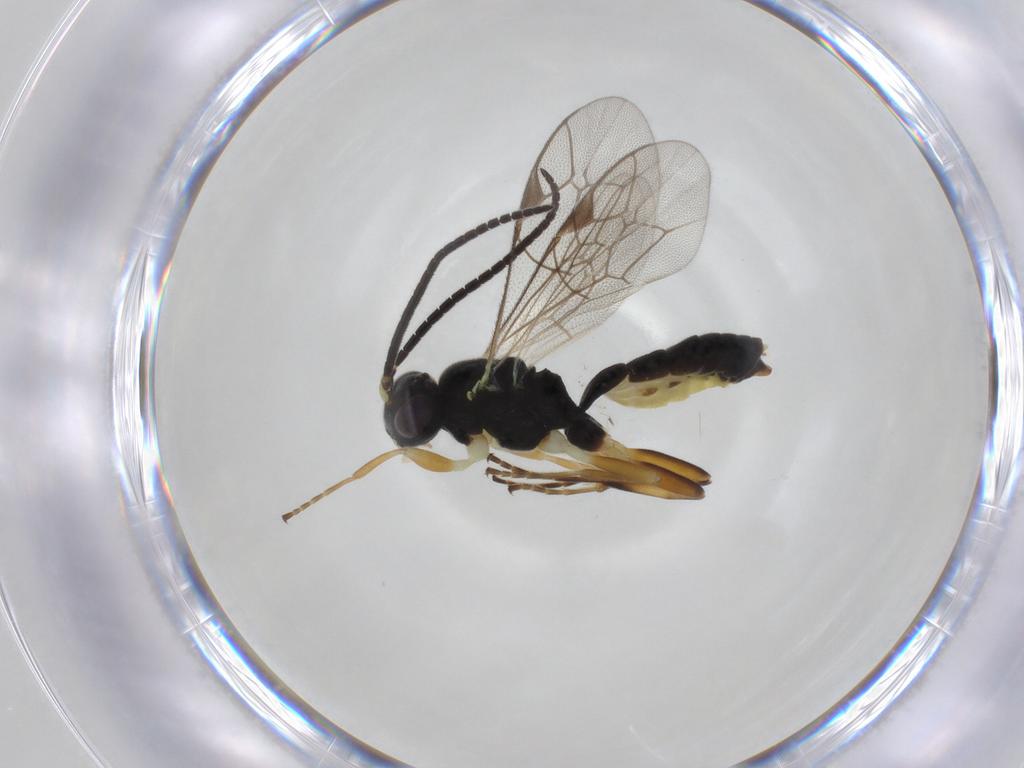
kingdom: Animalia
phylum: Arthropoda
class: Insecta
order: Hymenoptera
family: Ichneumonidae
